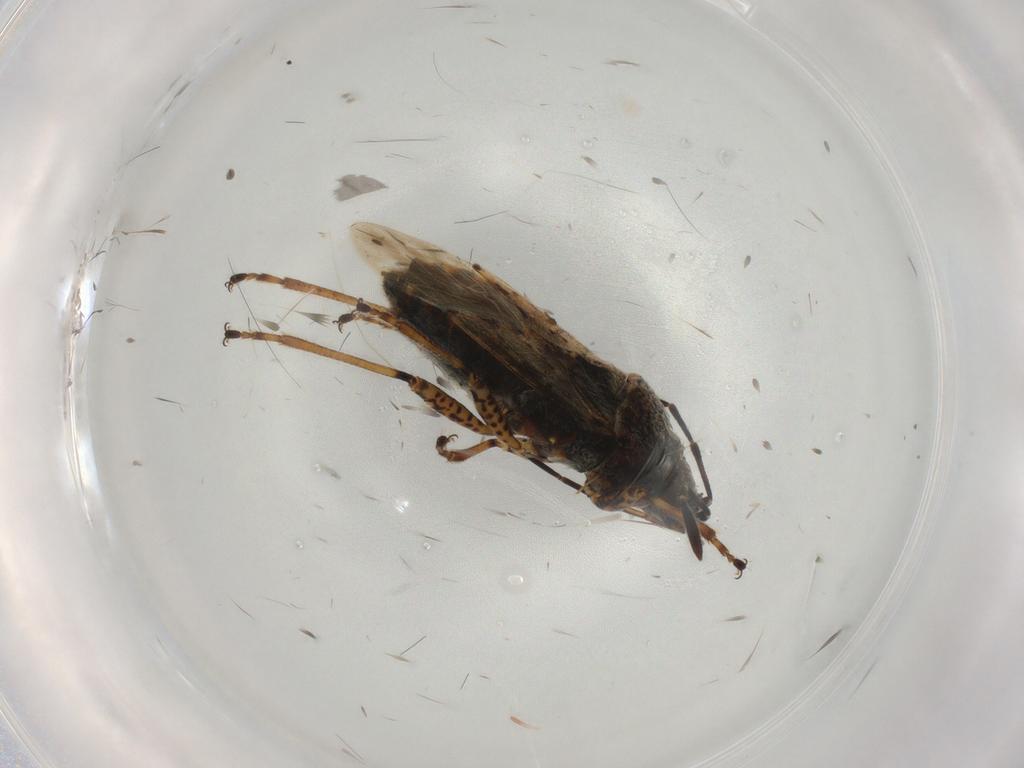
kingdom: Animalia
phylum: Arthropoda
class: Insecta
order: Hemiptera
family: Lygaeidae
